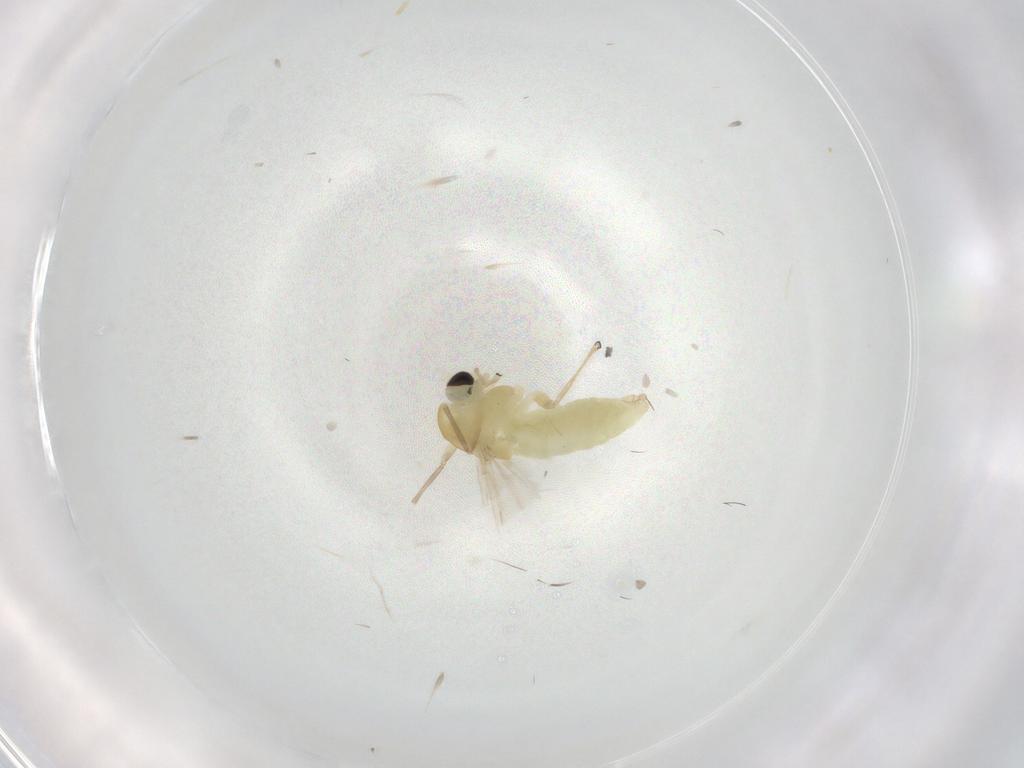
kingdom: Animalia
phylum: Arthropoda
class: Insecta
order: Diptera
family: Chironomidae
